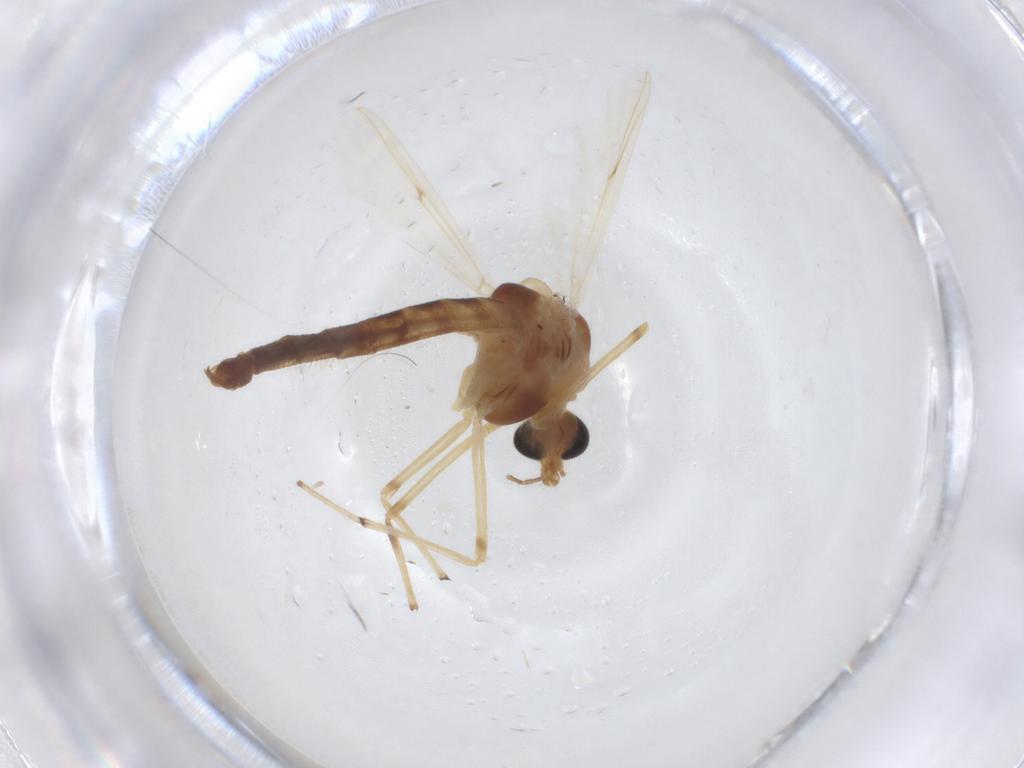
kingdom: Animalia
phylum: Arthropoda
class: Insecta
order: Diptera
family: Chironomidae
